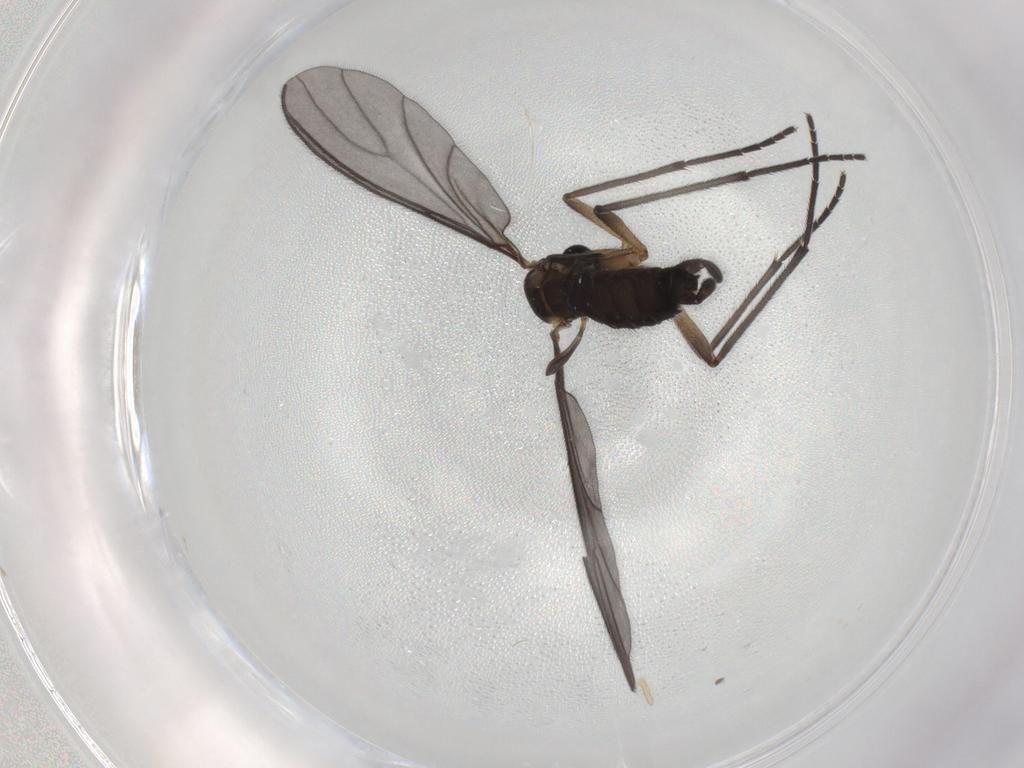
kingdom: Animalia
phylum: Arthropoda
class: Insecta
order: Diptera
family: Sciaridae
